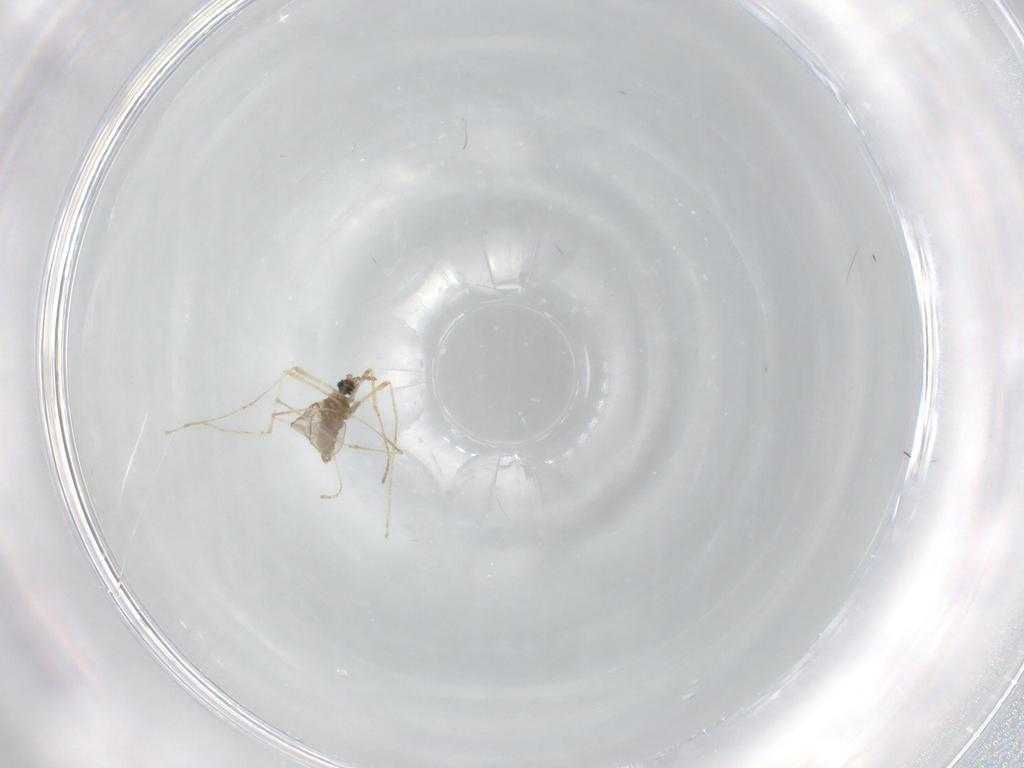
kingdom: Animalia
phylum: Arthropoda
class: Insecta
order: Diptera
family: Cecidomyiidae
